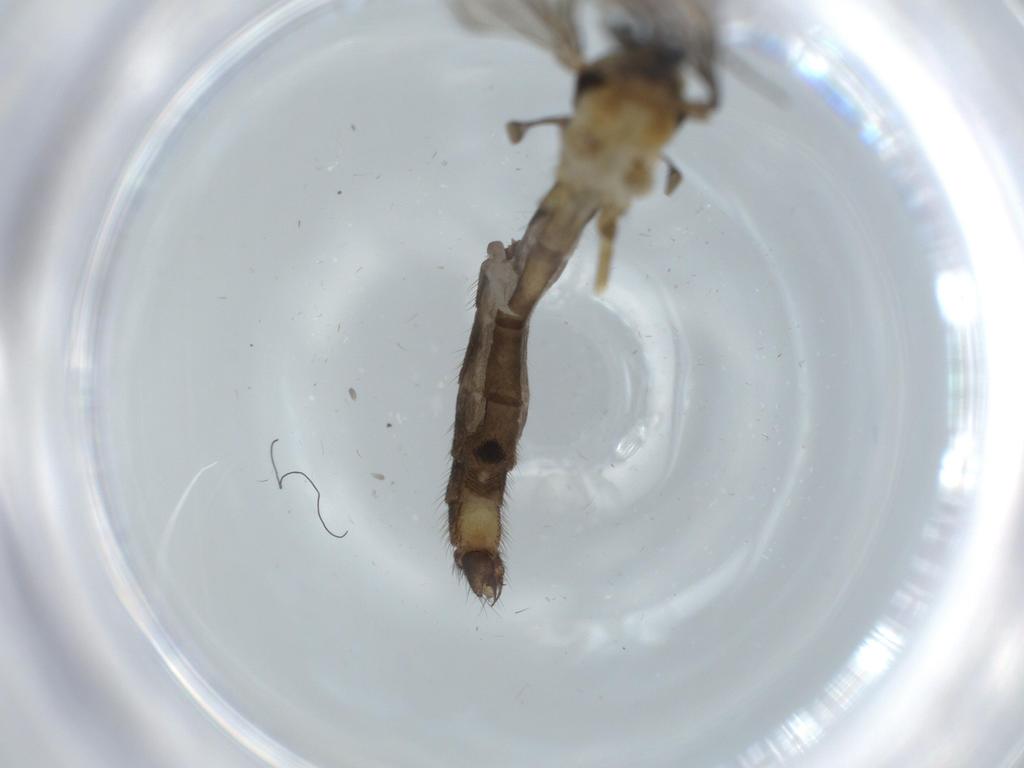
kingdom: Animalia
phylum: Arthropoda
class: Insecta
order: Diptera
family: Limoniidae
